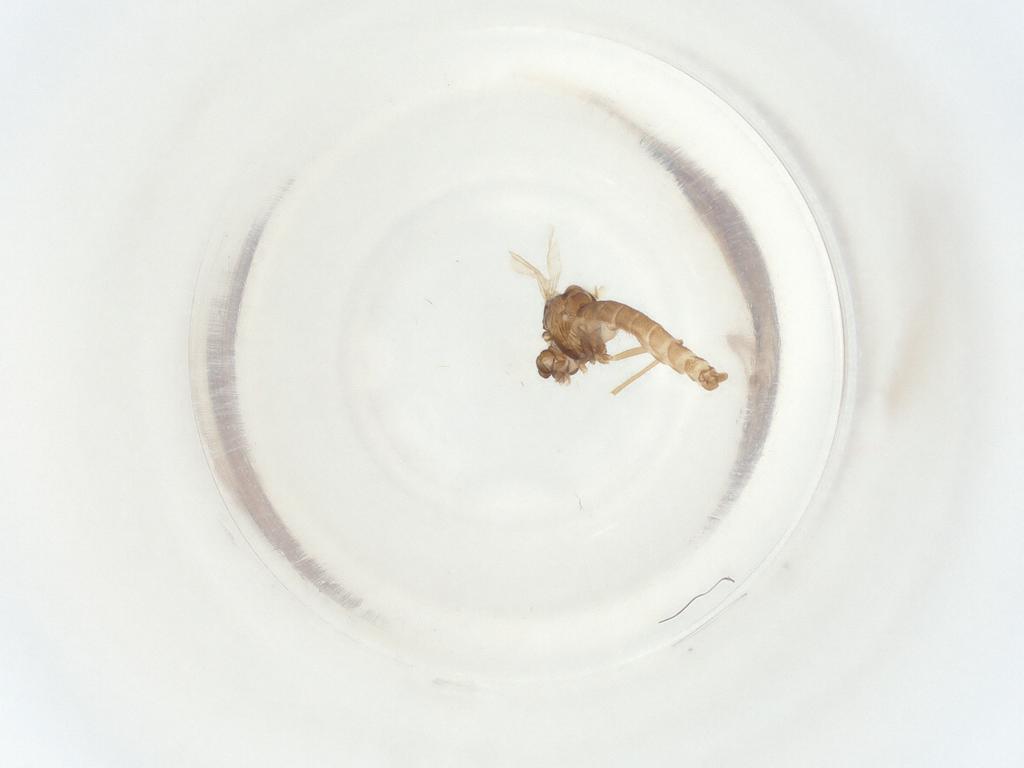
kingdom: Animalia
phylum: Arthropoda
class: Insecta
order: Diptera
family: Chironomidae
